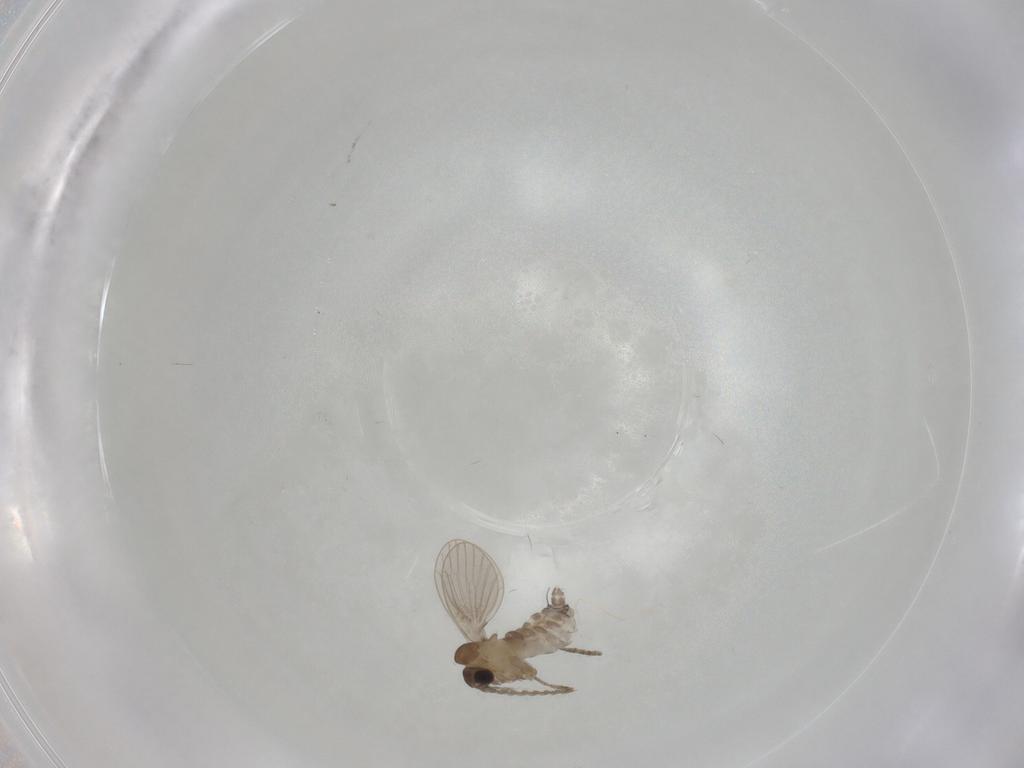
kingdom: Animalia
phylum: Arthropoda
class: Insecta
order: Diptera
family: Cecidomyiidae
